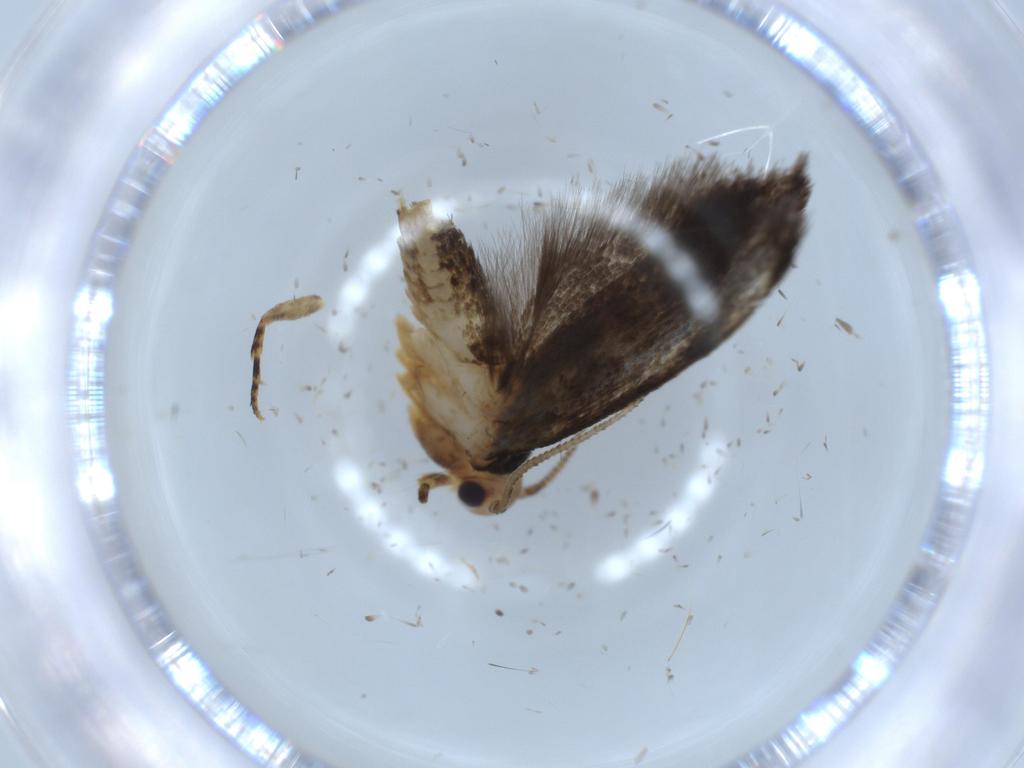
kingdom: Animalia
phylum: Arthropoda
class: Insecta
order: Lepidoptera
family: Tineidae
